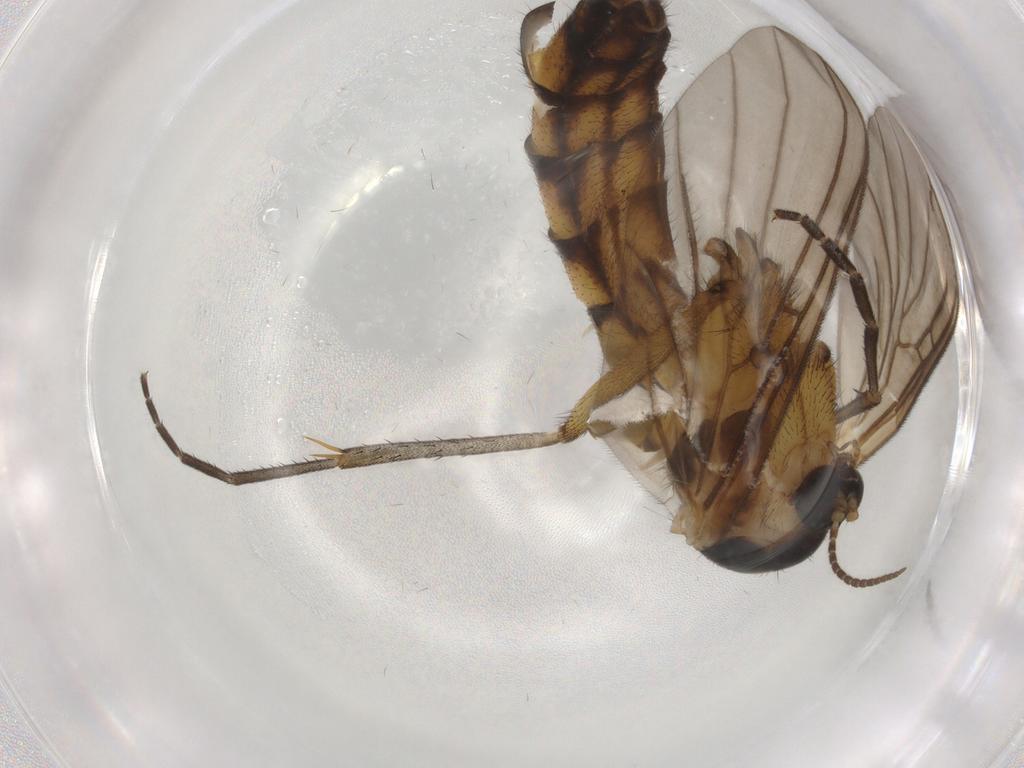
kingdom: Animalia
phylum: Arthropoda
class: Insecta
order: Diptera
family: Mycetophilidae
